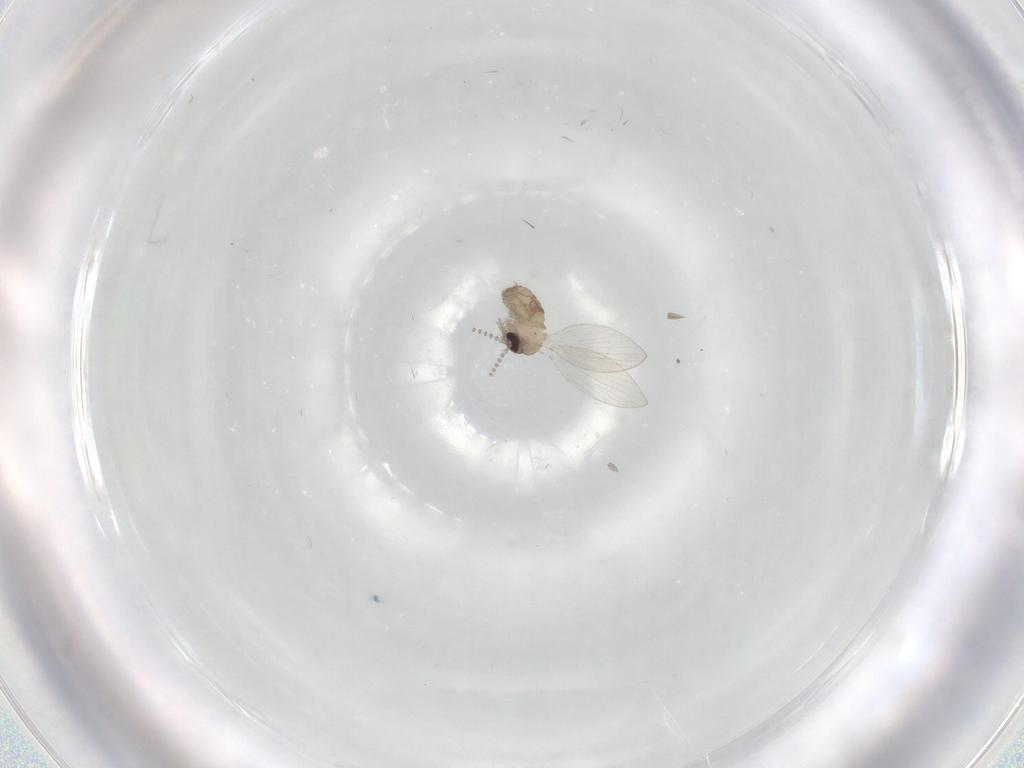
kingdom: Animalia
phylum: Arthropoda
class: Insecta
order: Diptera
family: Psychodidae
